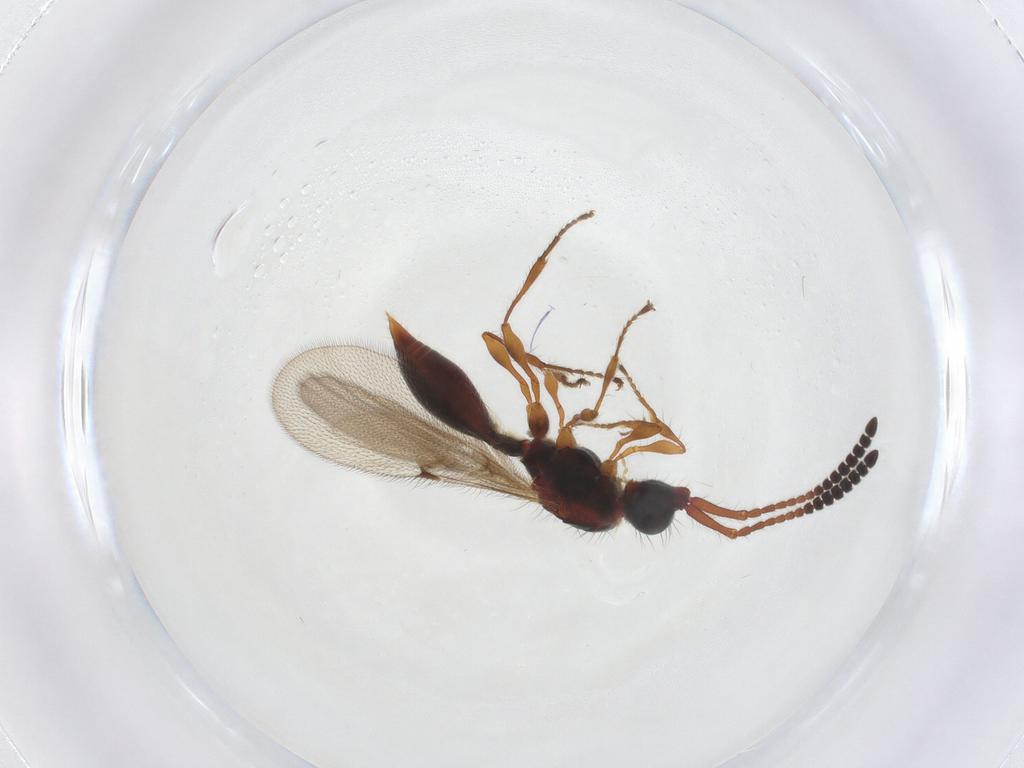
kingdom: Animalia
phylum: Arthropoda
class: Insecta
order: Hymenoptera
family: Diapriidae
